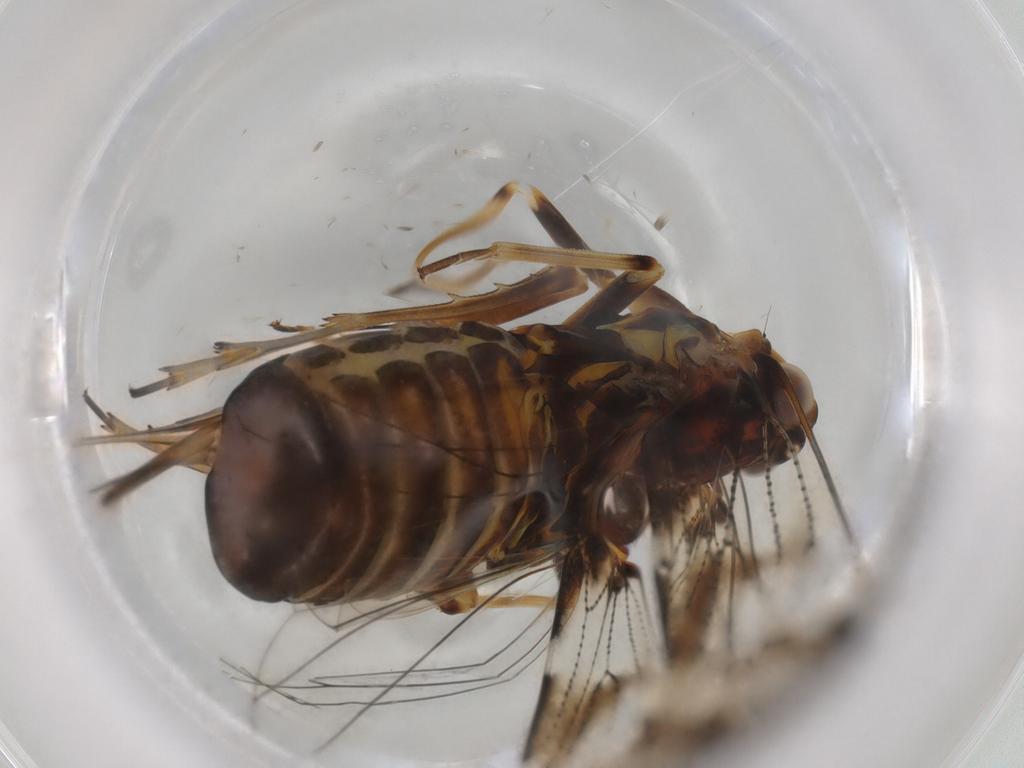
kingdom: Animalia
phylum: Arthropoda
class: Insecta
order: Hemiptera
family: Cixiidae
